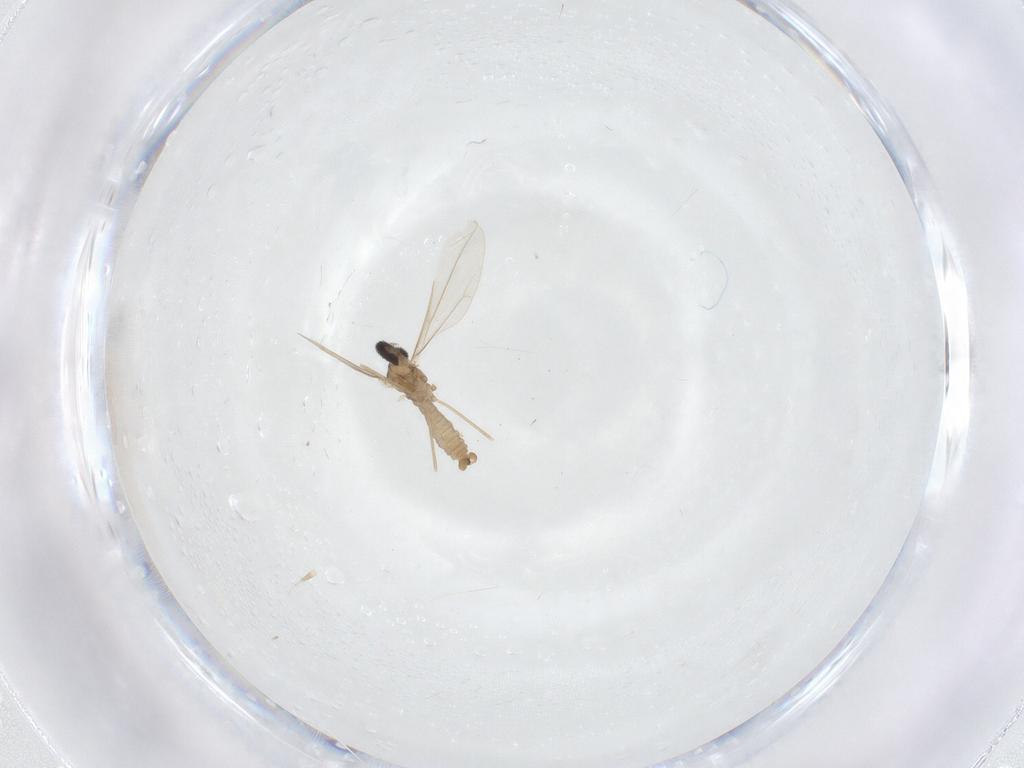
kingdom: Animalia
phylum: Arthropoda
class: Insecta
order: Diptera
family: Cecidomyiidae
